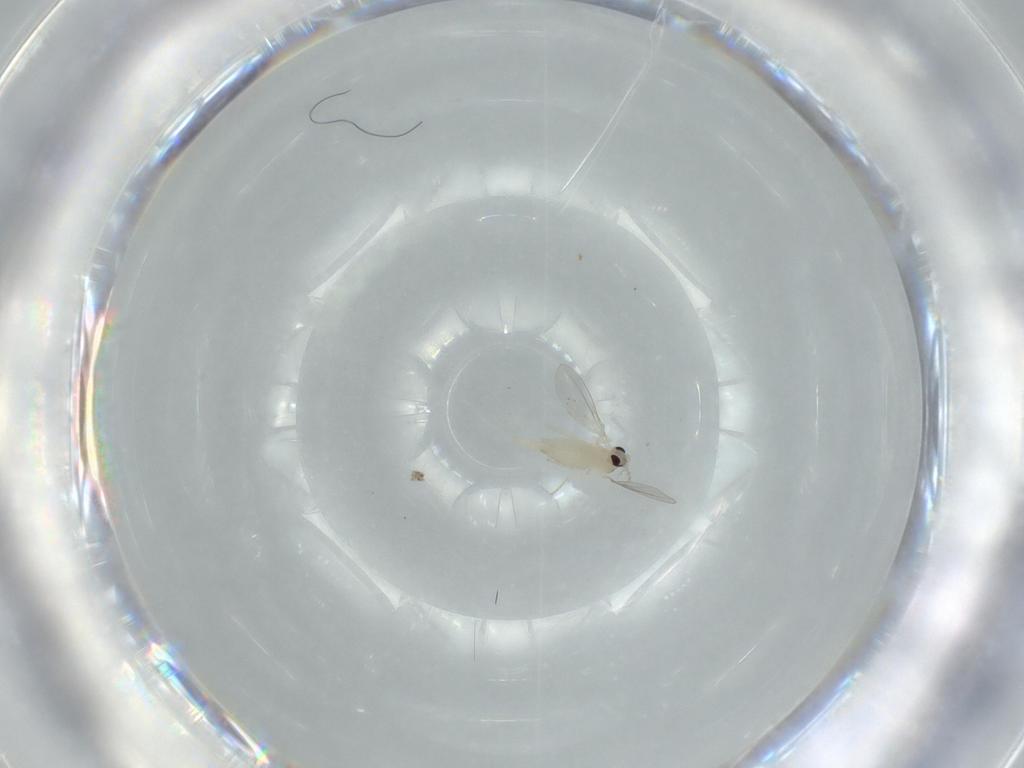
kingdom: Animalia
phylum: Arthropoda
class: Insecta
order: Diptera
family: Cecidomyiidae
